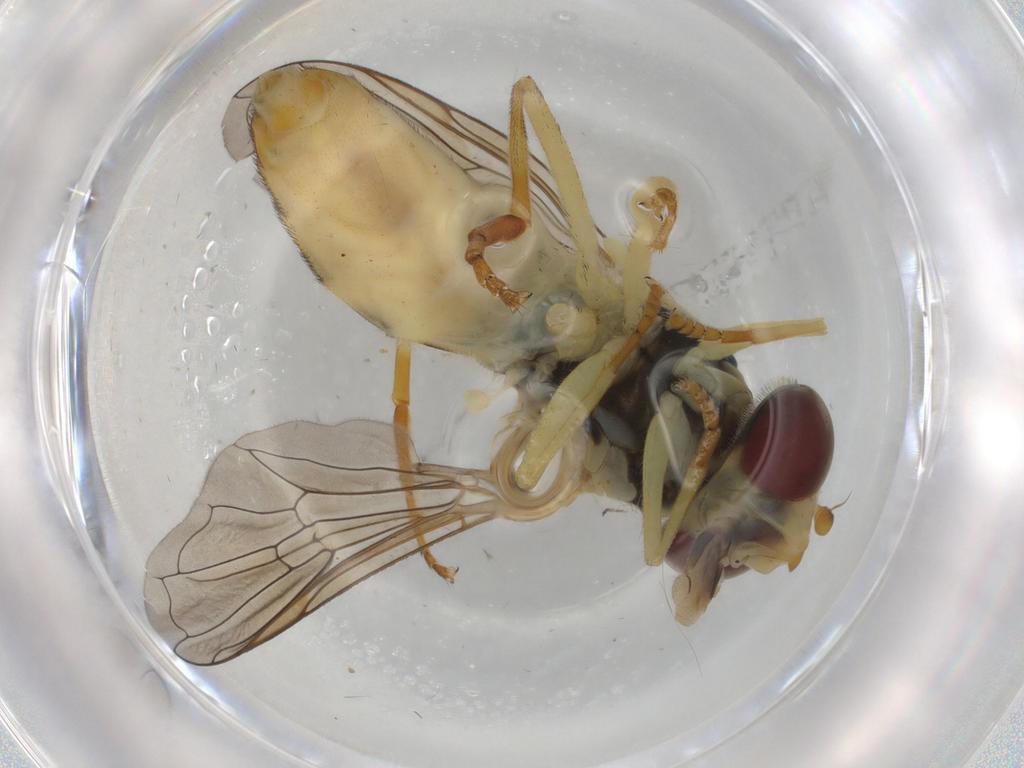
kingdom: Animalia
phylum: Arthropoda
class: Insecta
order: Diptera
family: Syrphidae
